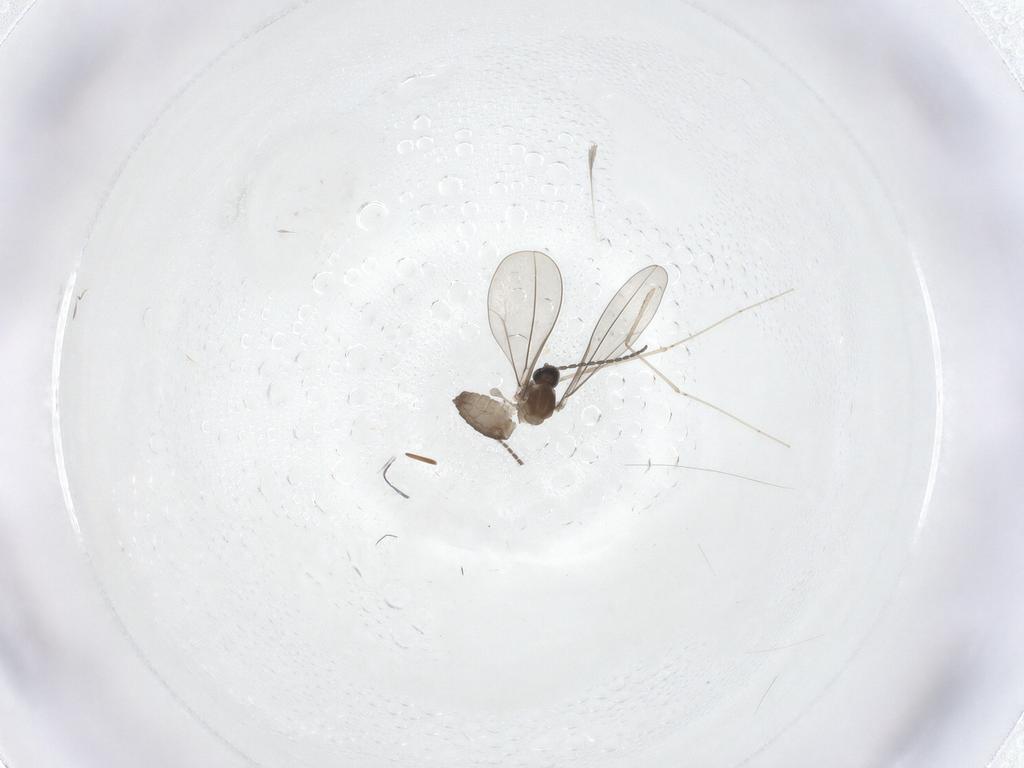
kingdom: Animalia
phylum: Arthropoda
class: Insecta
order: Diptera
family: Cecidomyiidae
